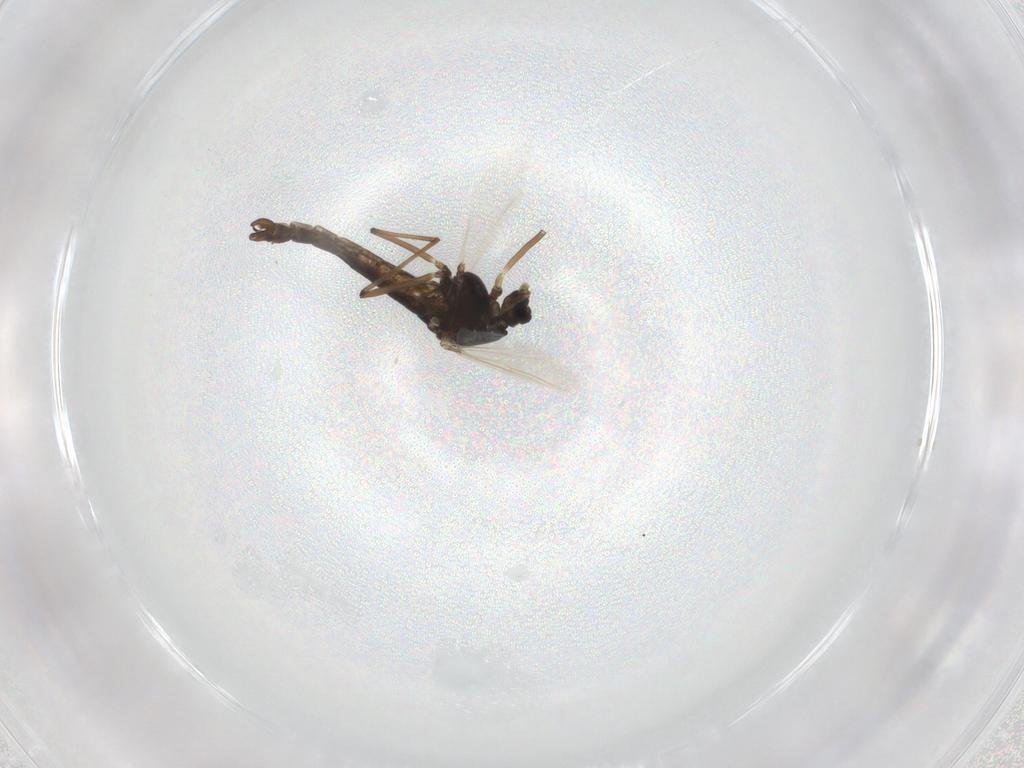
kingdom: Animalia
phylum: Arthropoda
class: Insecta
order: Diptera
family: Chironomidae
